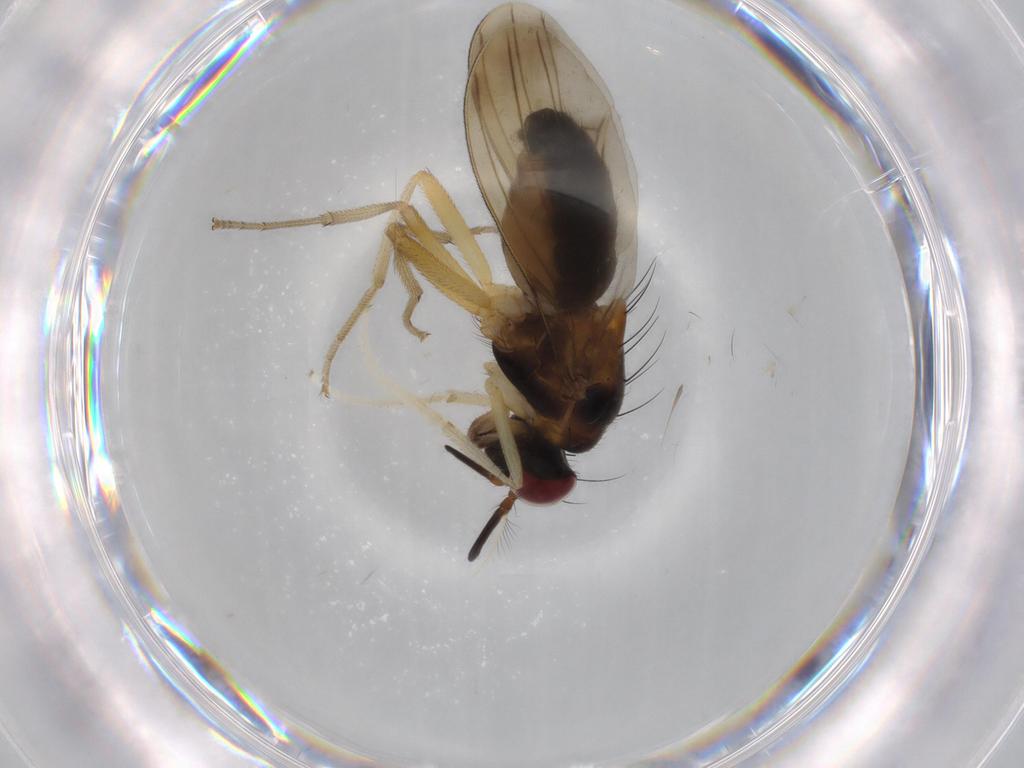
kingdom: Animalia
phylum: Arthropoda
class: Insecta
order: Diptera
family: Lauxaniidae
